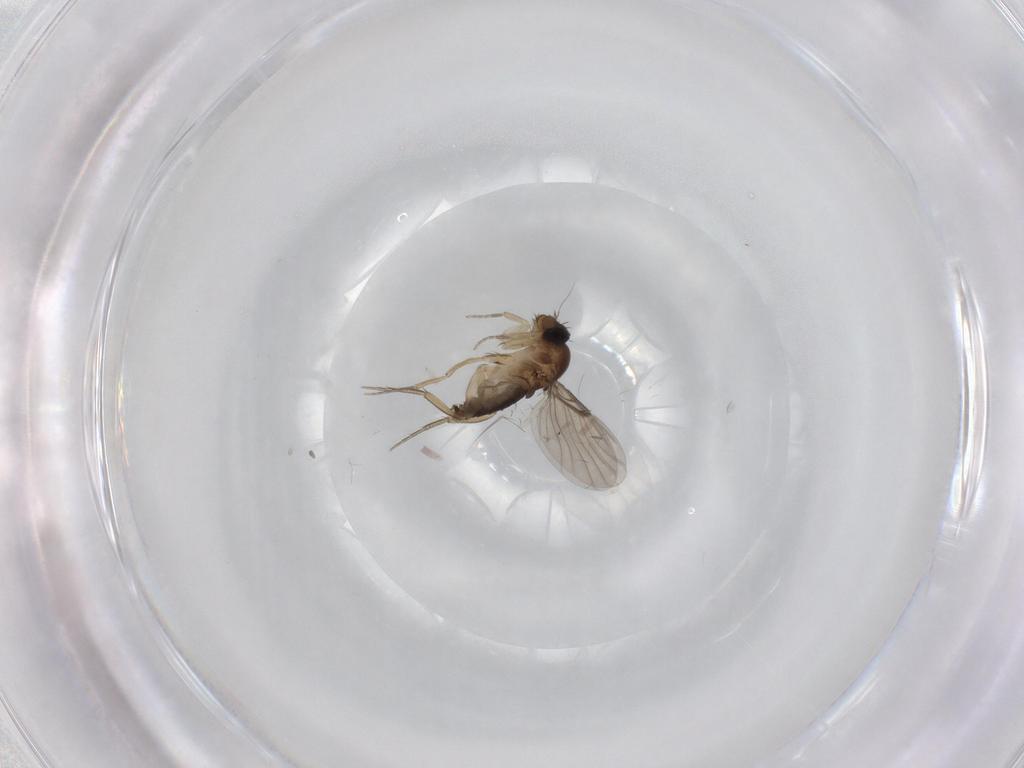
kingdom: Animalia
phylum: Arthropoda
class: Insecta
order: Diptera
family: Phoridae
